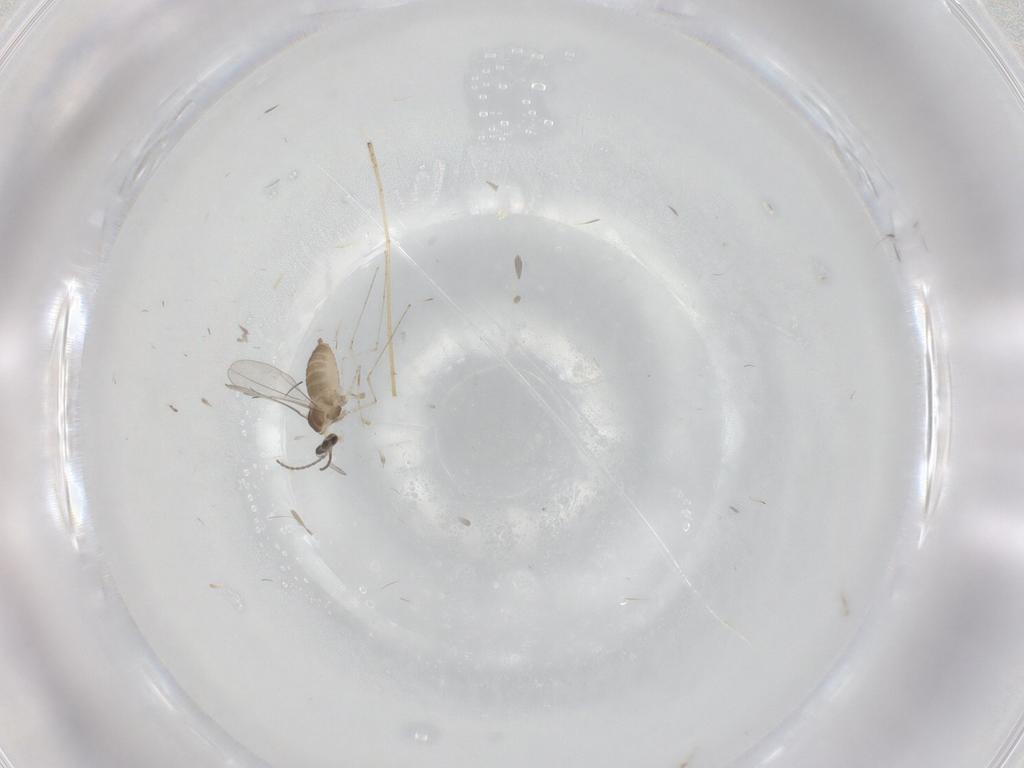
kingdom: Animalia
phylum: Arthropoda
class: Insecta
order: Diptera
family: Cecidomyiidae
